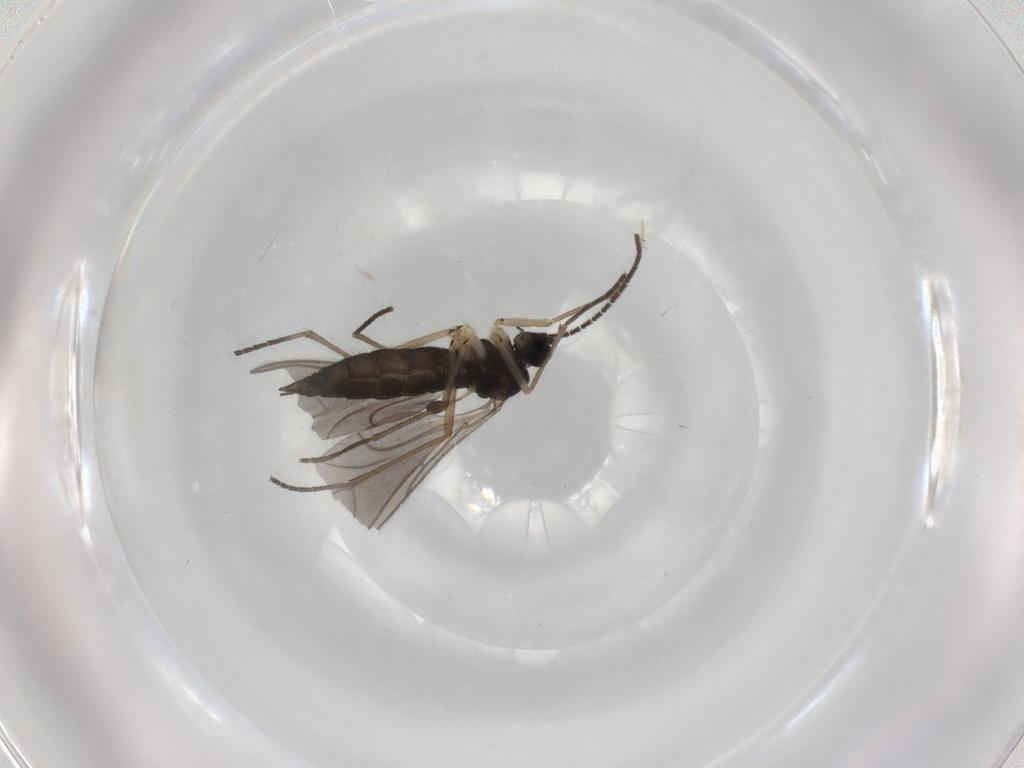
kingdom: Animalia
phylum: Arthropoda
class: Insecta
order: Diptera
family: Sciaridae
